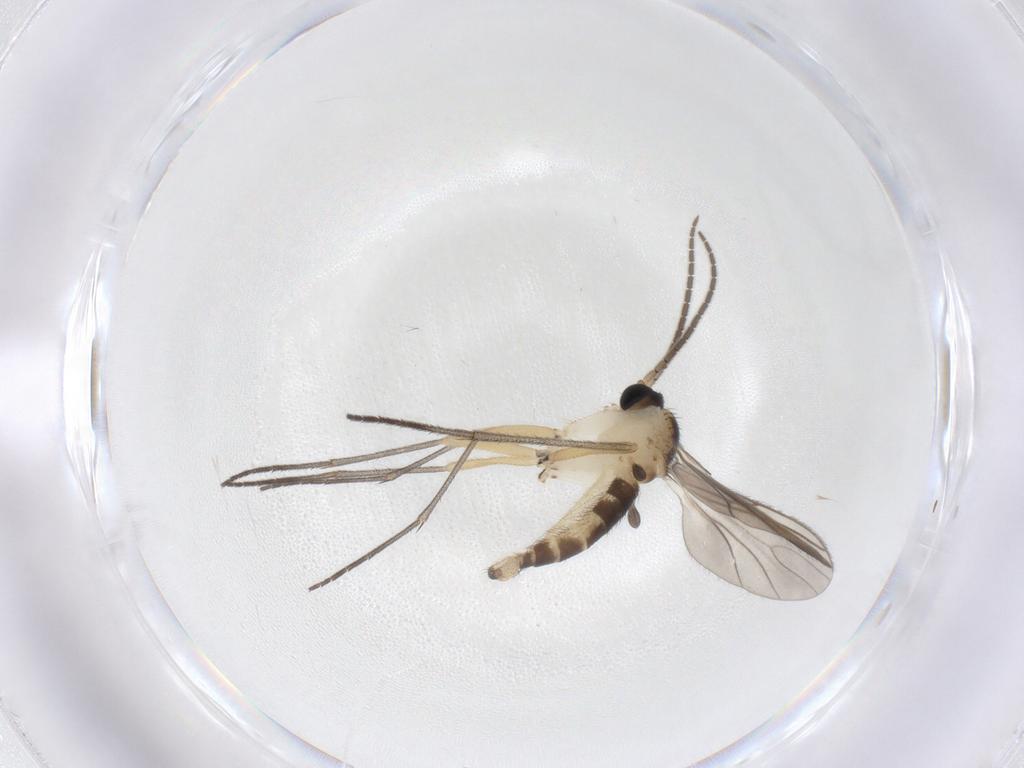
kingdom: Animalia
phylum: Arthropoda
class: Insecta
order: Diptera
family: Sciaridae
